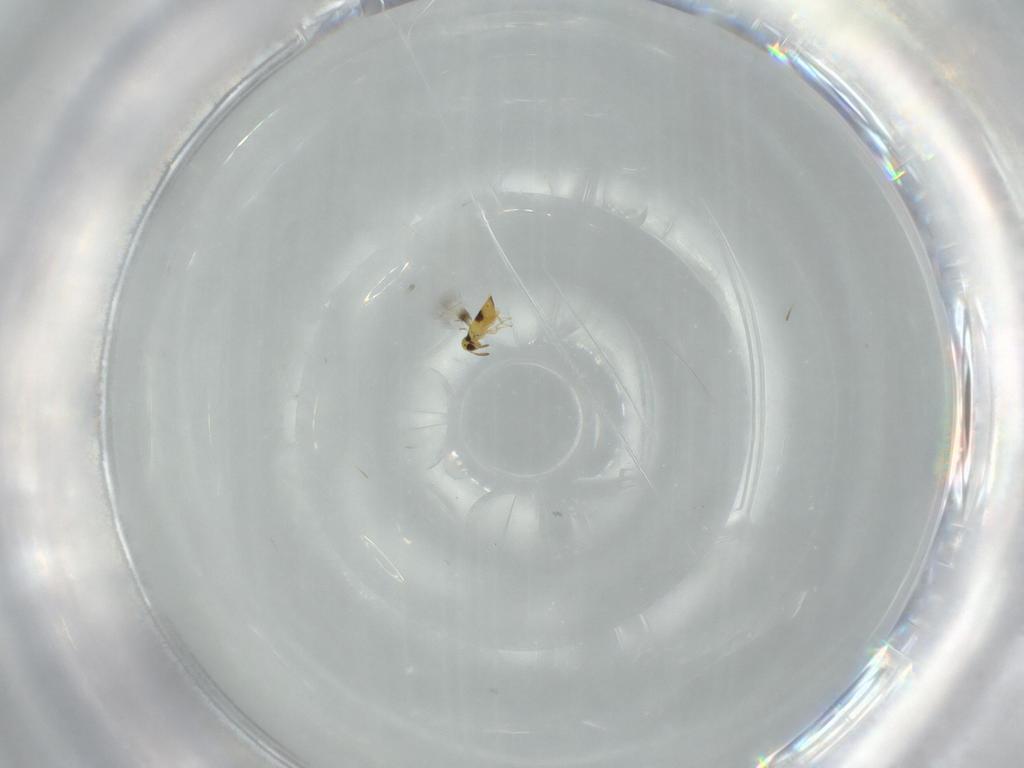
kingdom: Animalia
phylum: Arthropoda
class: Insecta
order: Hymenoptera
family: Signiphoridae
